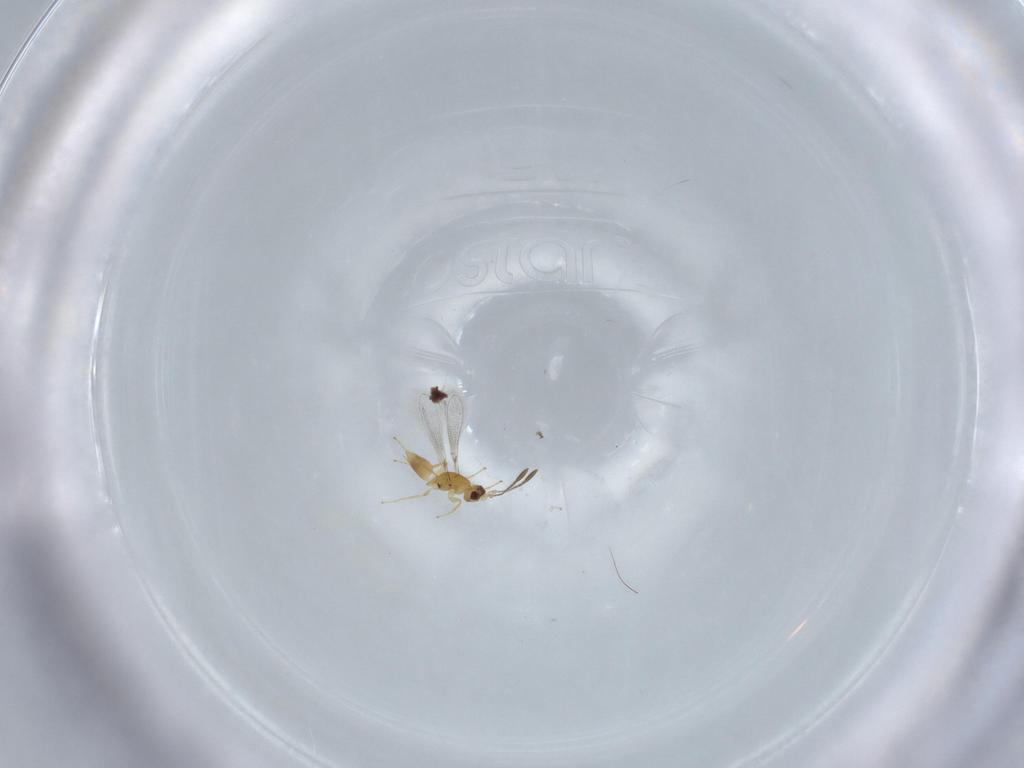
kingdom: Animalia
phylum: Arthropoda
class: Insecta
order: Hymenoptera
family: Mymaridae
